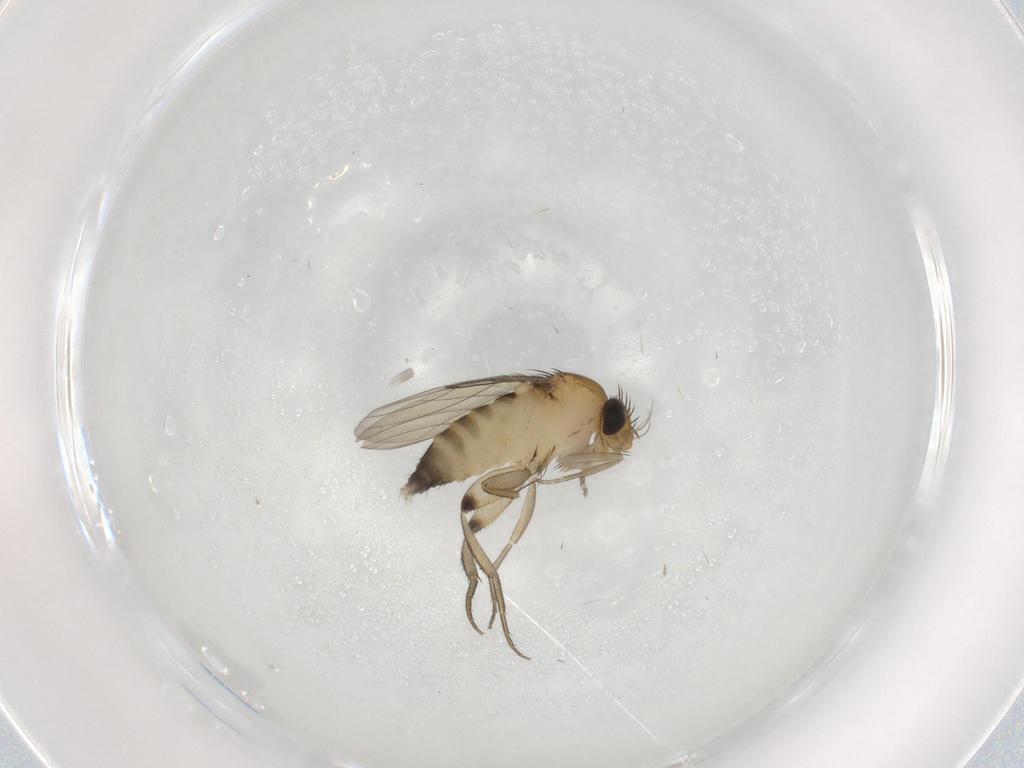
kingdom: Animalia
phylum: Arthropoda
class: Insecta
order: Diptera
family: Phoridae
